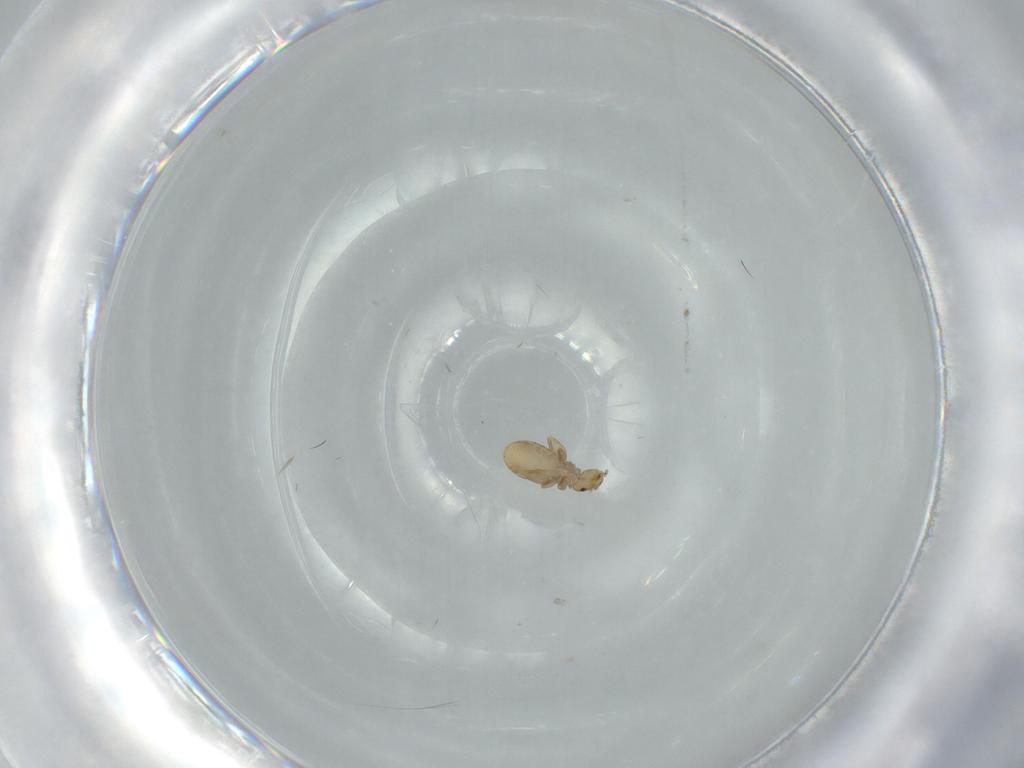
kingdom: Animalia
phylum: Arthropoda
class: Insecta
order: Psocodea
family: Liposcelididae
